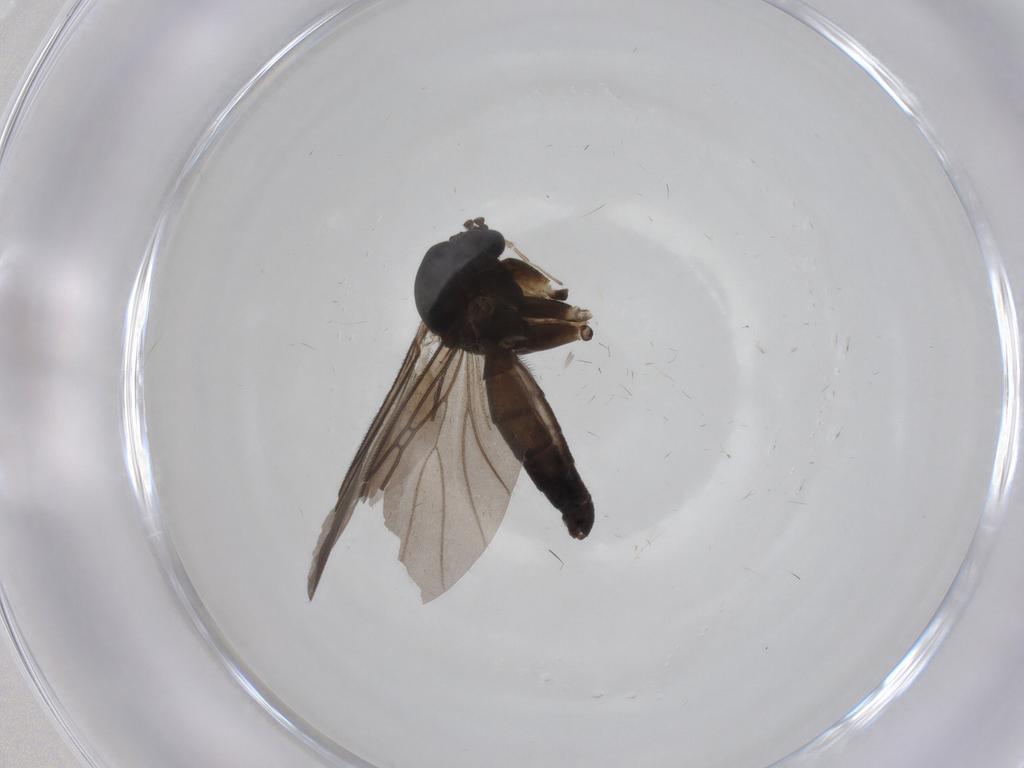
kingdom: Animalia
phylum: Arthropoda
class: Insecta
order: Diptera
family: Mycetophilidae
